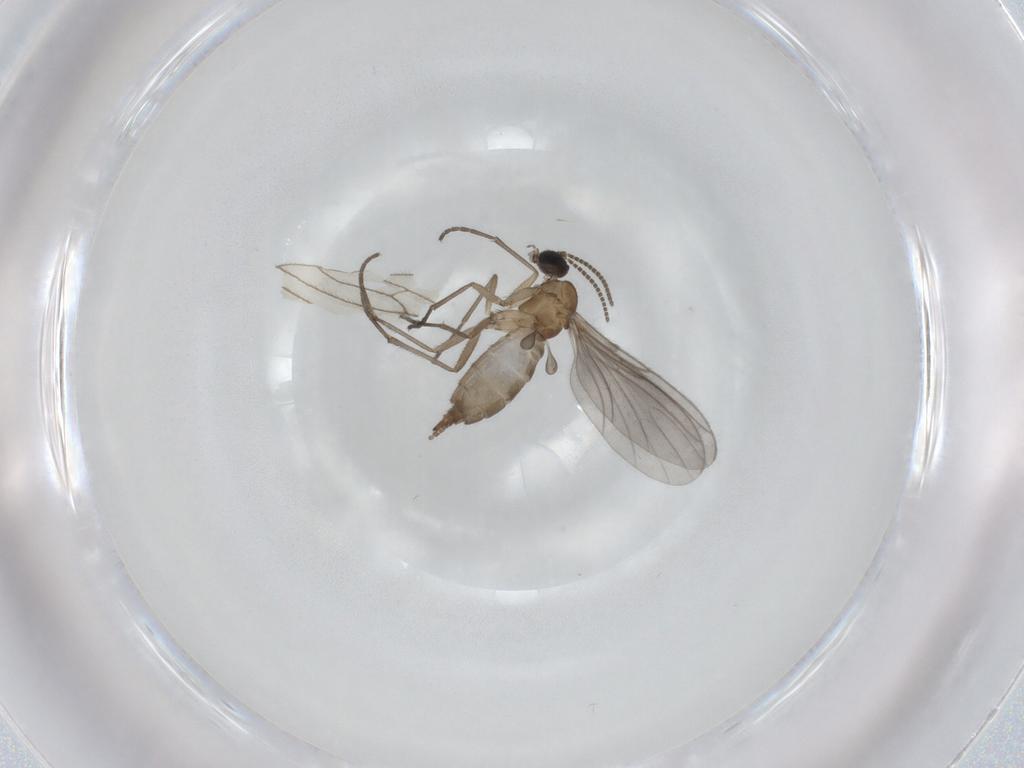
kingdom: Animalia
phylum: Arthropoda
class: Insecta
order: Diptera
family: Sciaridae
